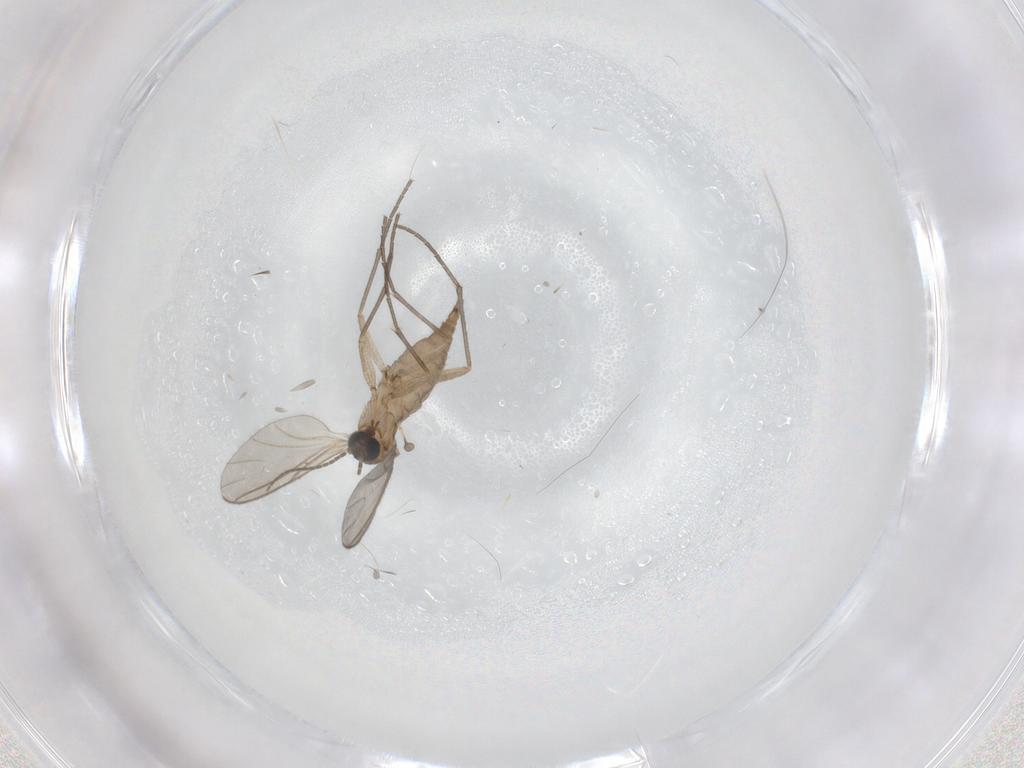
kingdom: Animalia
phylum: Arthropoda
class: Insecta
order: Diptera
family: Sciaridae
